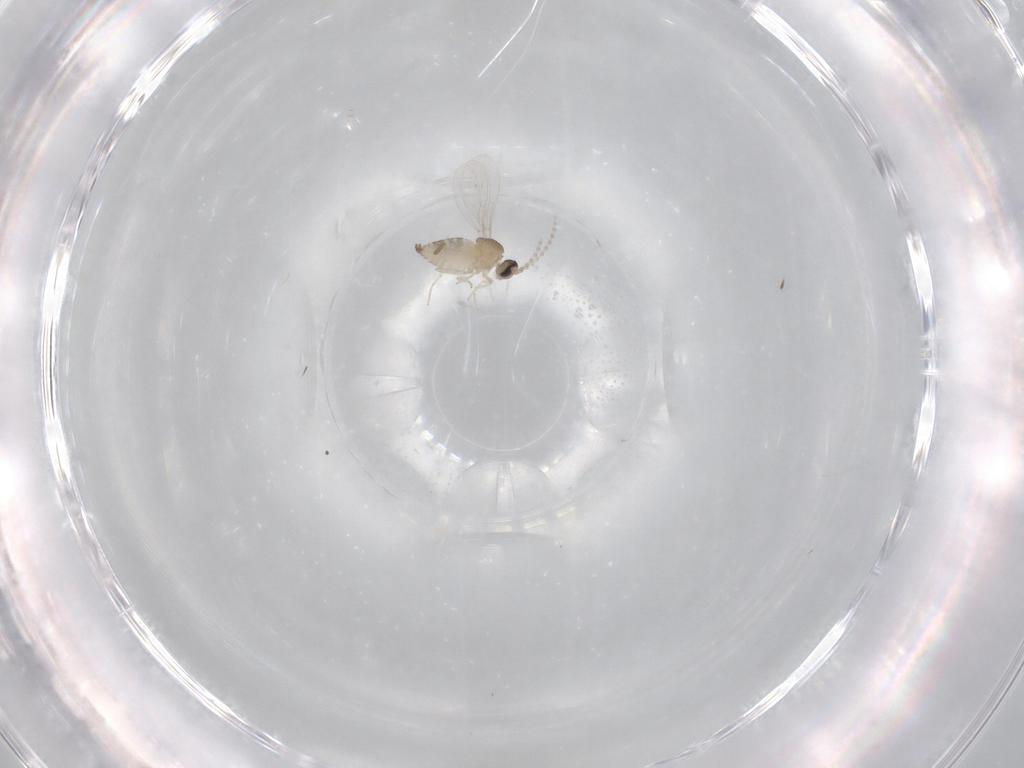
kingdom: Animalia
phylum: Arthropoda
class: Insecta
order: Diptera
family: Cecidomyiidae
